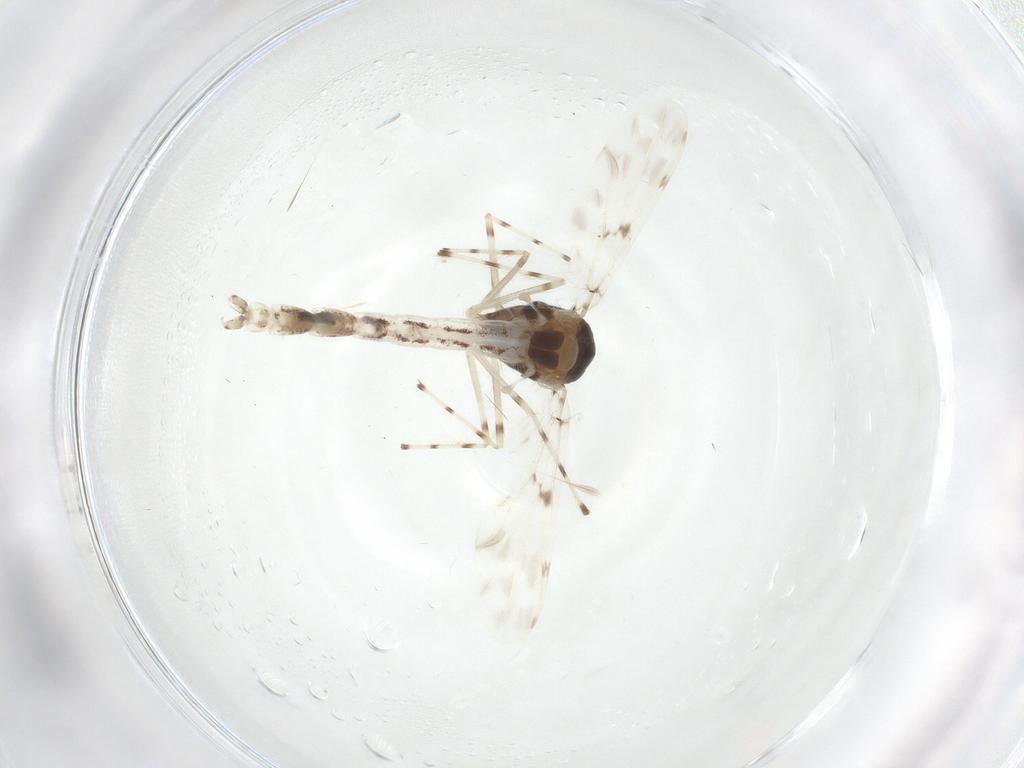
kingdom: Animalia
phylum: Arthropoda
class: Insecta
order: Diptera
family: Chironomidae
